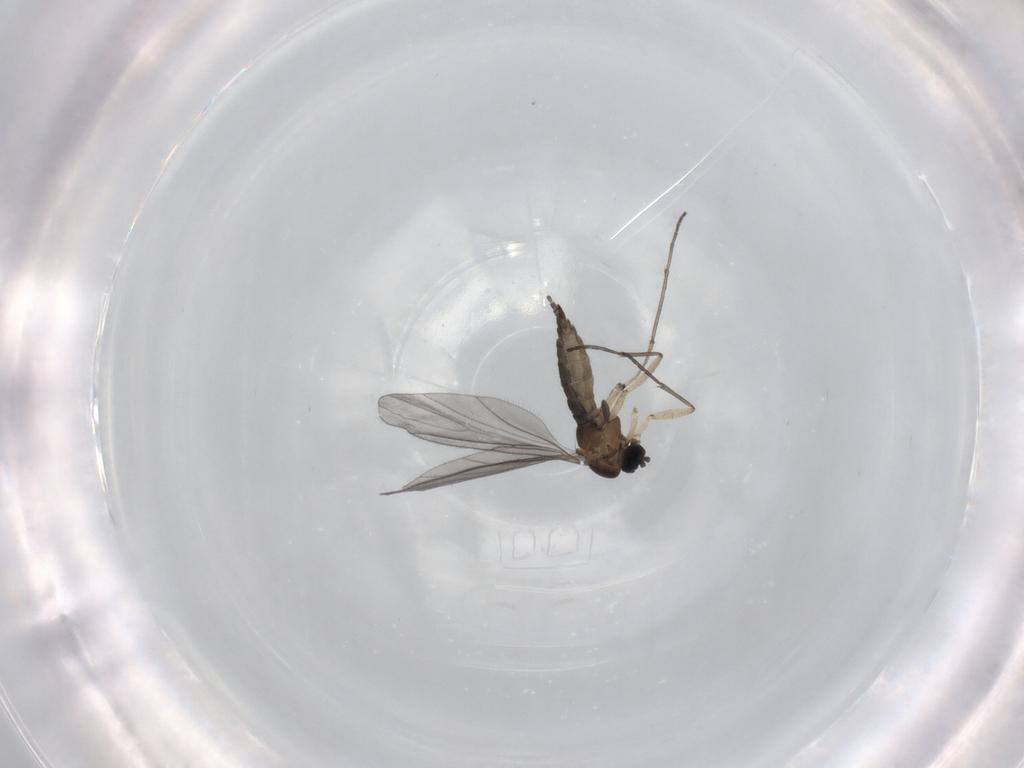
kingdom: Animalia
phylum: Arthropoda
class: Insecta
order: Diptera
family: Sciaridae
